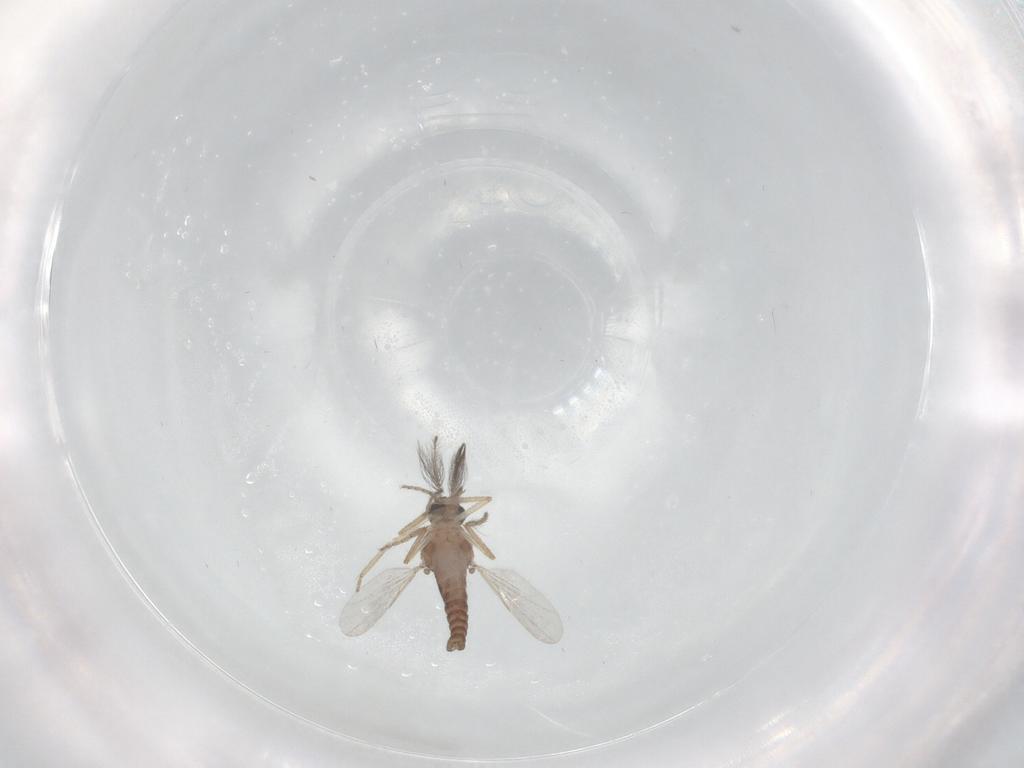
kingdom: Animalia
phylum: Arthropoda
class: Insecta
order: Diptera
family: Ceratopogonidae
